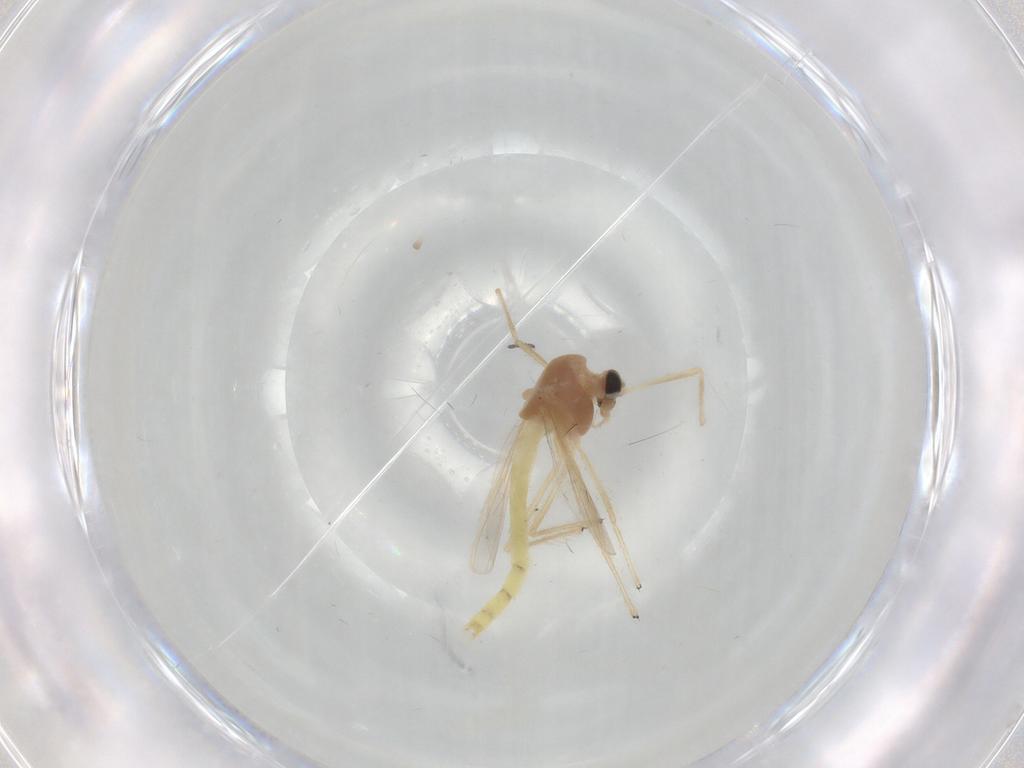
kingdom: Animalia
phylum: Arthropoda
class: Insecta
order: Diptera
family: Chironomidae
